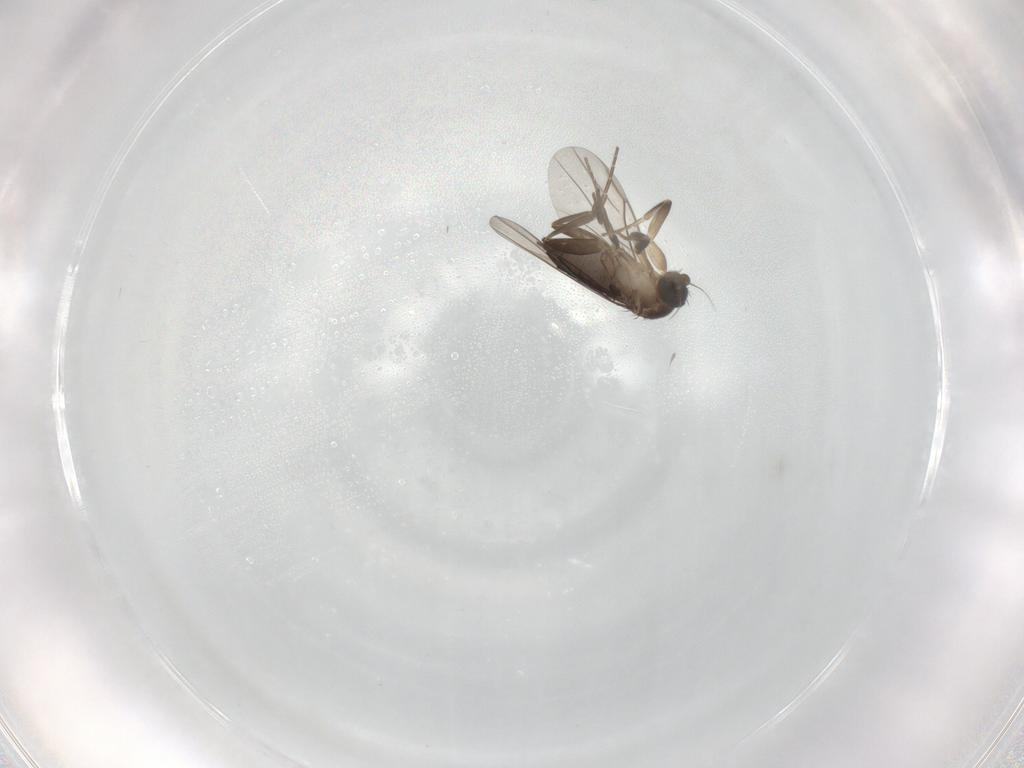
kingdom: Animalia
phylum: Arthropoda
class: Insecta
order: Diptera
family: Phoridae
